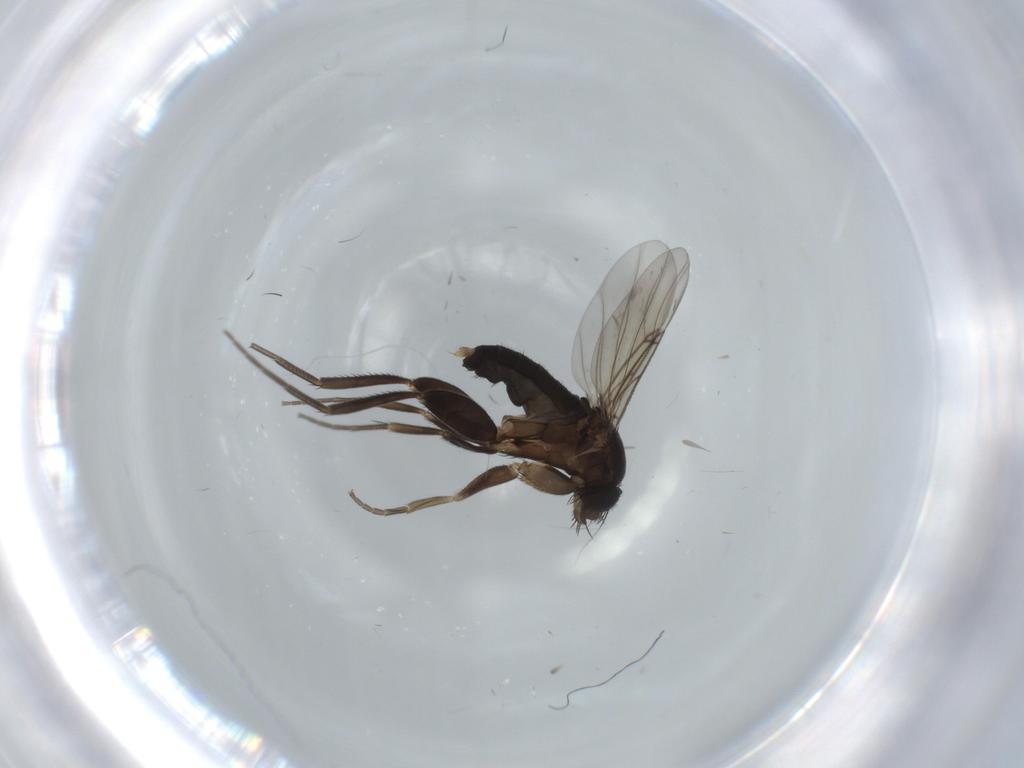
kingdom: Animalia
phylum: Arthropoda
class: Insecta
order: Diptera
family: Phoridae
